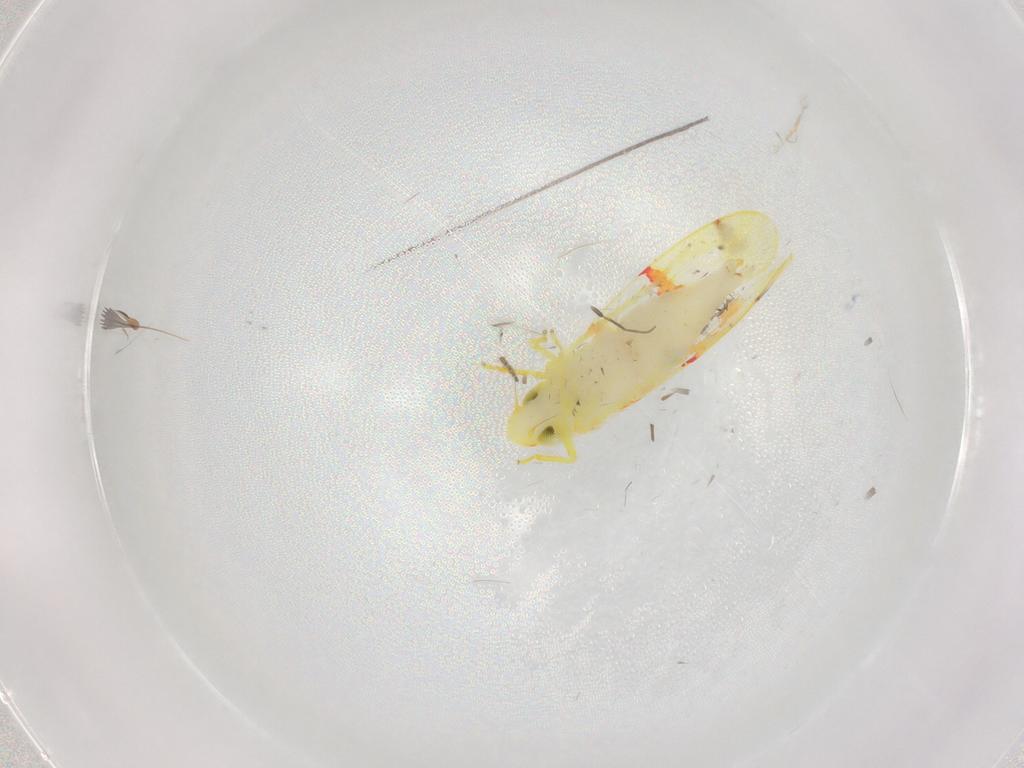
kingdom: Animalia
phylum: Arthropoda
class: Insecta
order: Hemiptera
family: Cicadellidae
